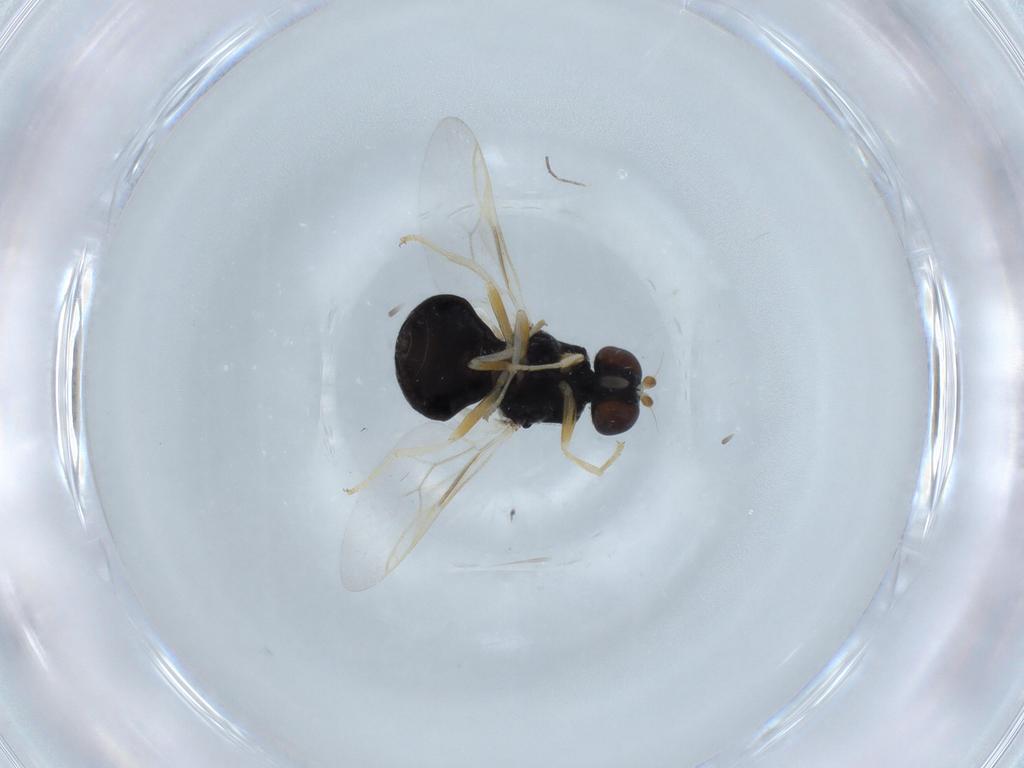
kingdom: Animalia
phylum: Arthropoda
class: Insecta
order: Diptera
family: Stratiomyidae
